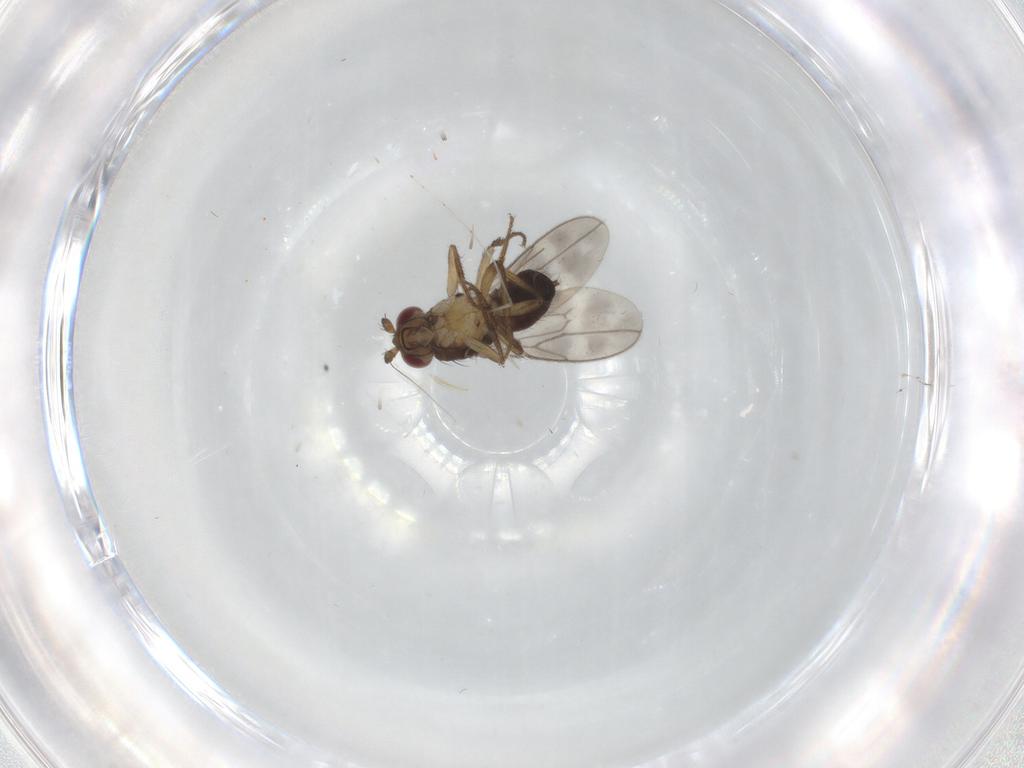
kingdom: Animalia
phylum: Arthropoda
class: Insecta
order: Diptera
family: Sphaeroceridae
